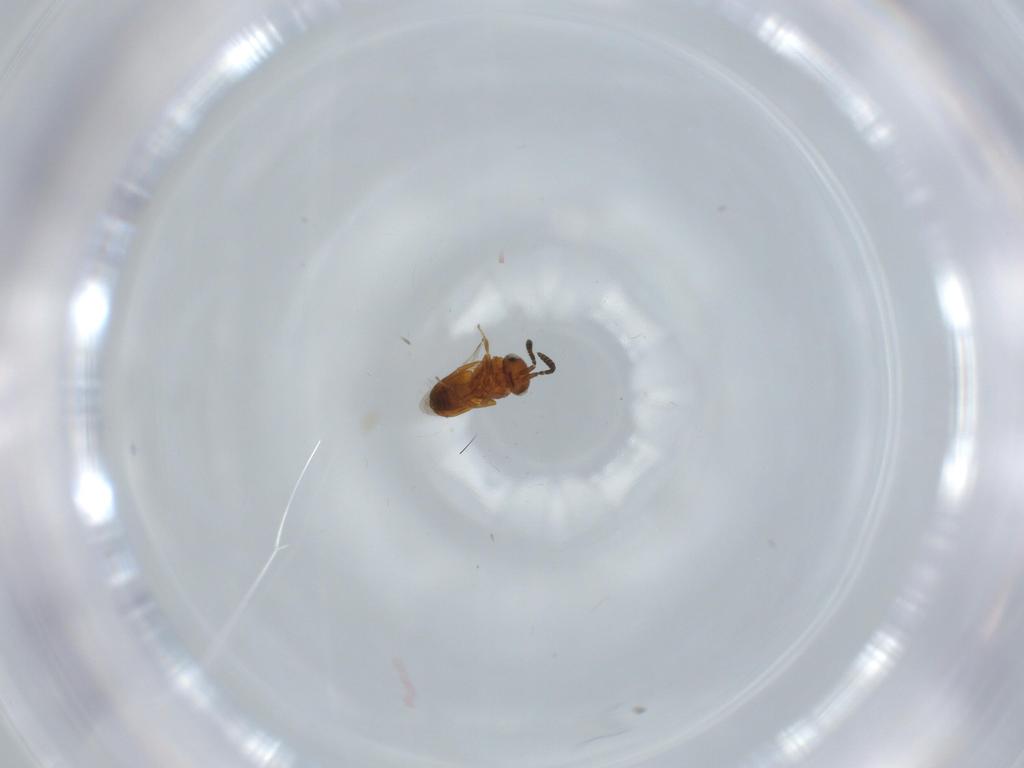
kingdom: Animalia
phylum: Arthropoda
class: Insecta
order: Hymenoptera
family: Scelionidae
